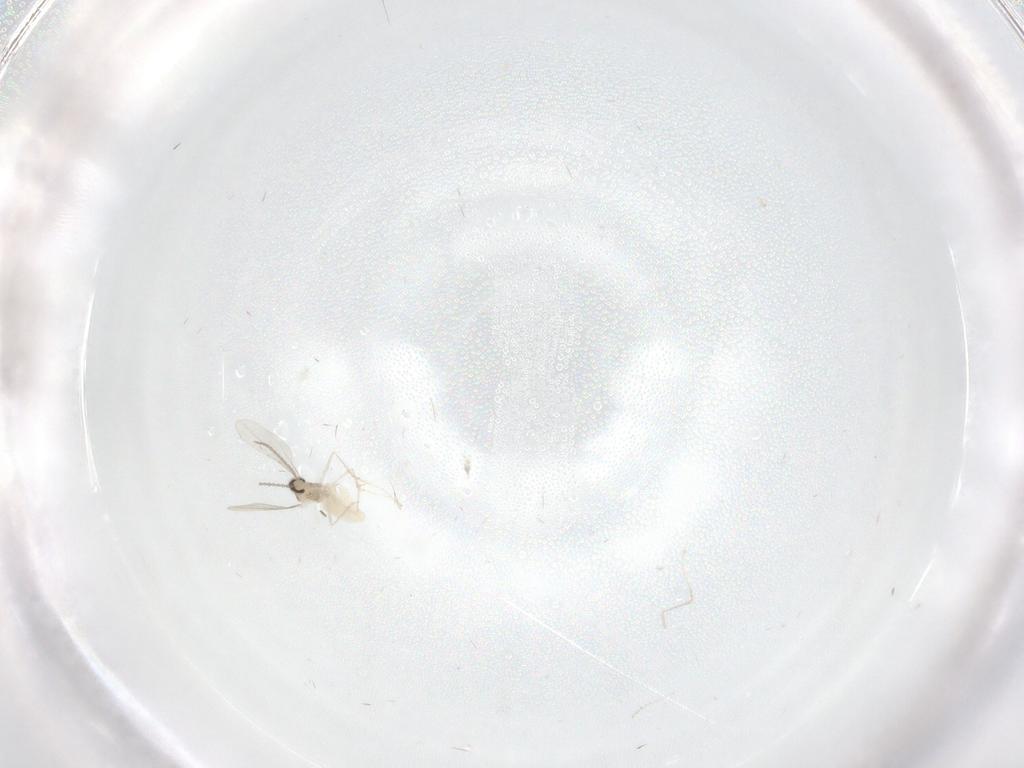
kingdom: Animalia
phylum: Arthropoda
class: Insecta
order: Diptera
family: Cecidomyiidae
